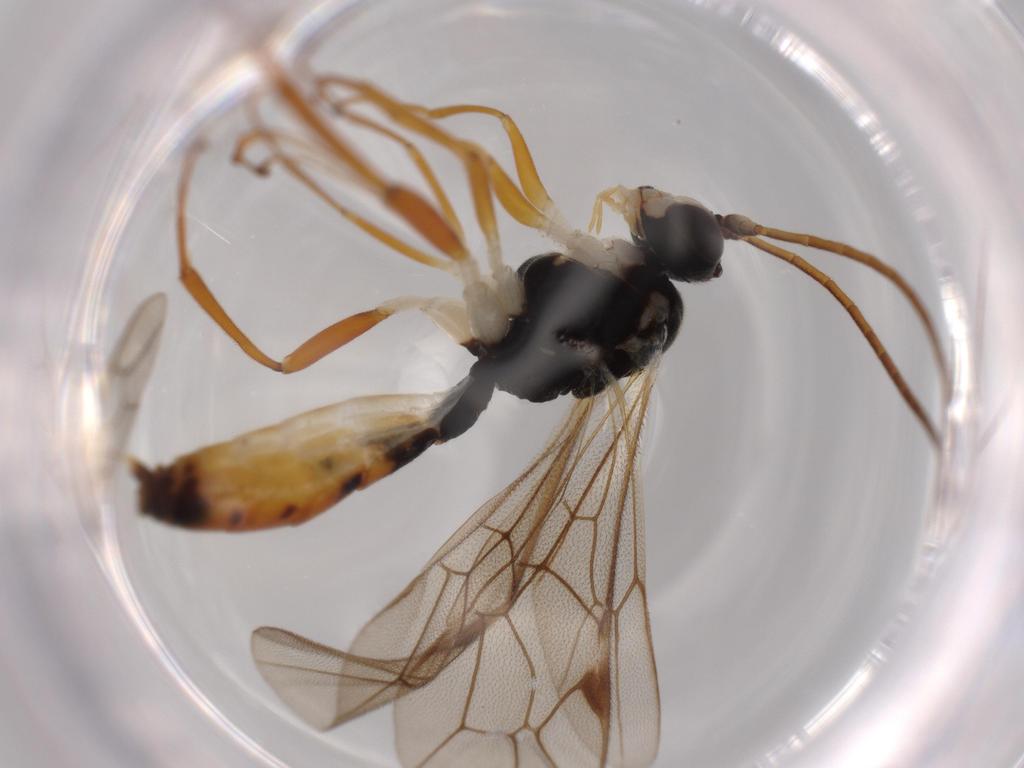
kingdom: Animalia
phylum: Arthropoda
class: Insecta
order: Hymenoptera
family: Ichneumonidae
